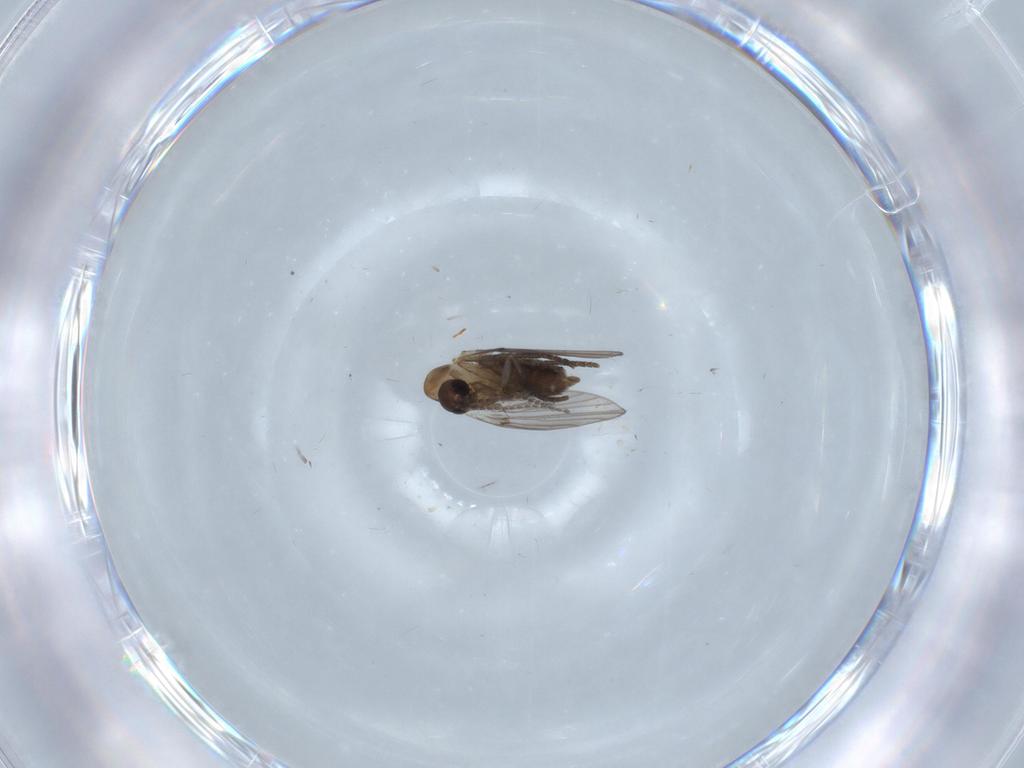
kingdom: Animalia
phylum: Arthropoda
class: Insecta
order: Diptera
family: Psychodidae
